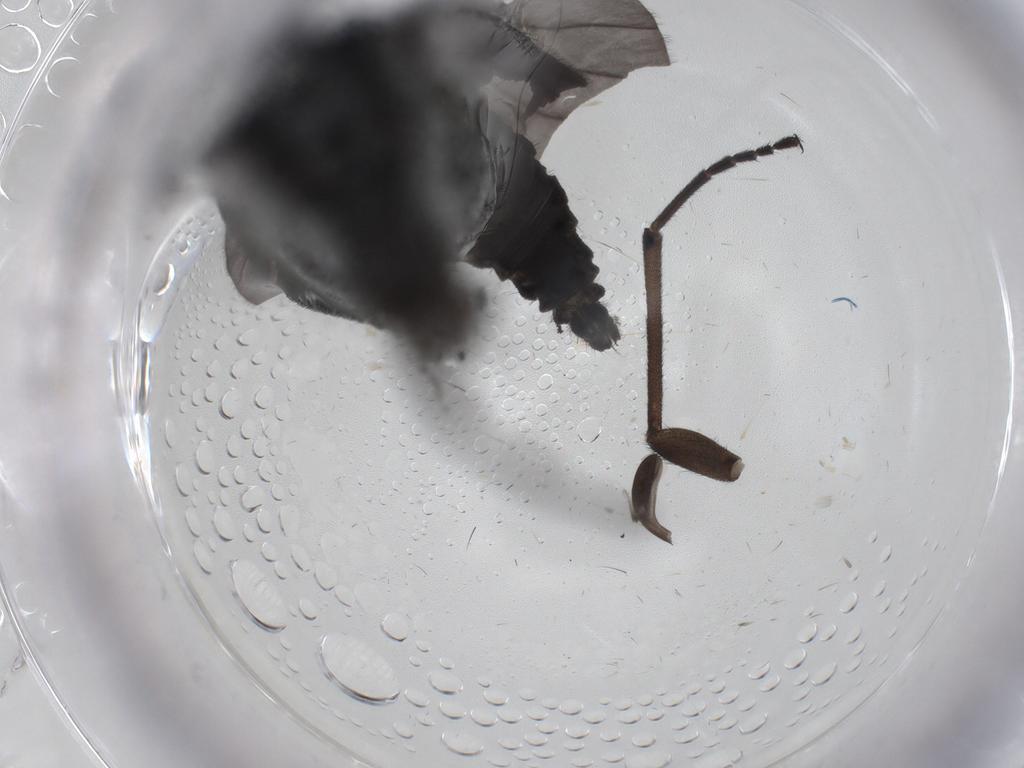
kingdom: Animalia
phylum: Arthropoda
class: Insecta
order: Diptera
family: Sciaridae
